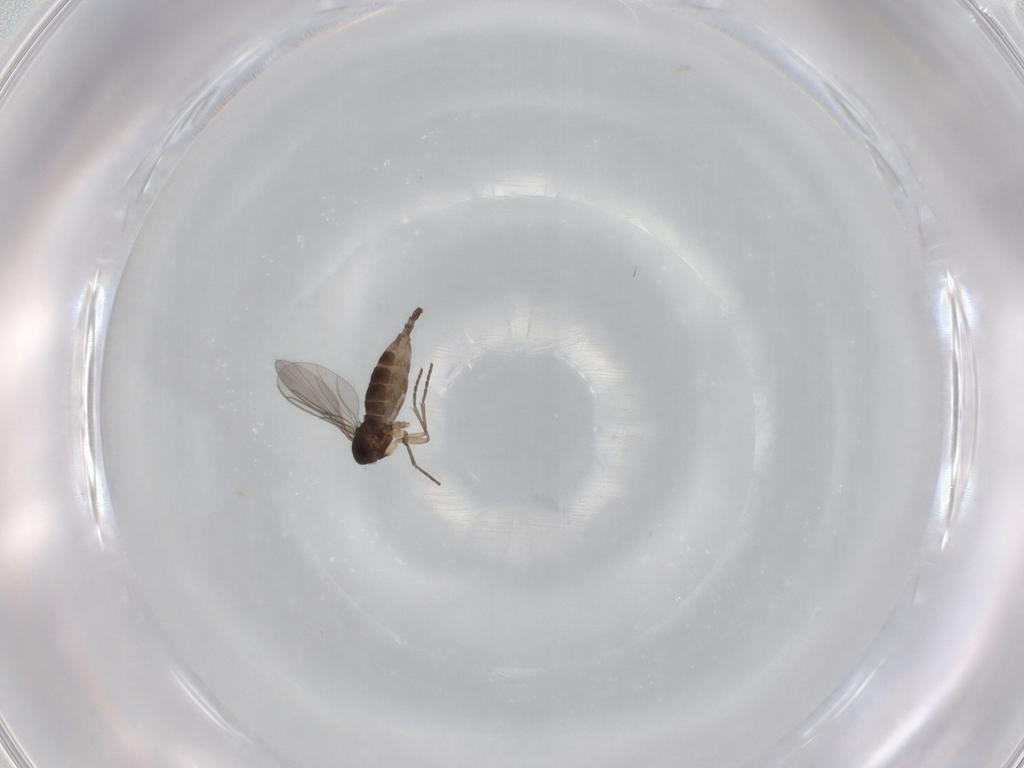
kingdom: Animalia
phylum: Arthropoda
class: Insecta
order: Diptera
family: Sciaridae
